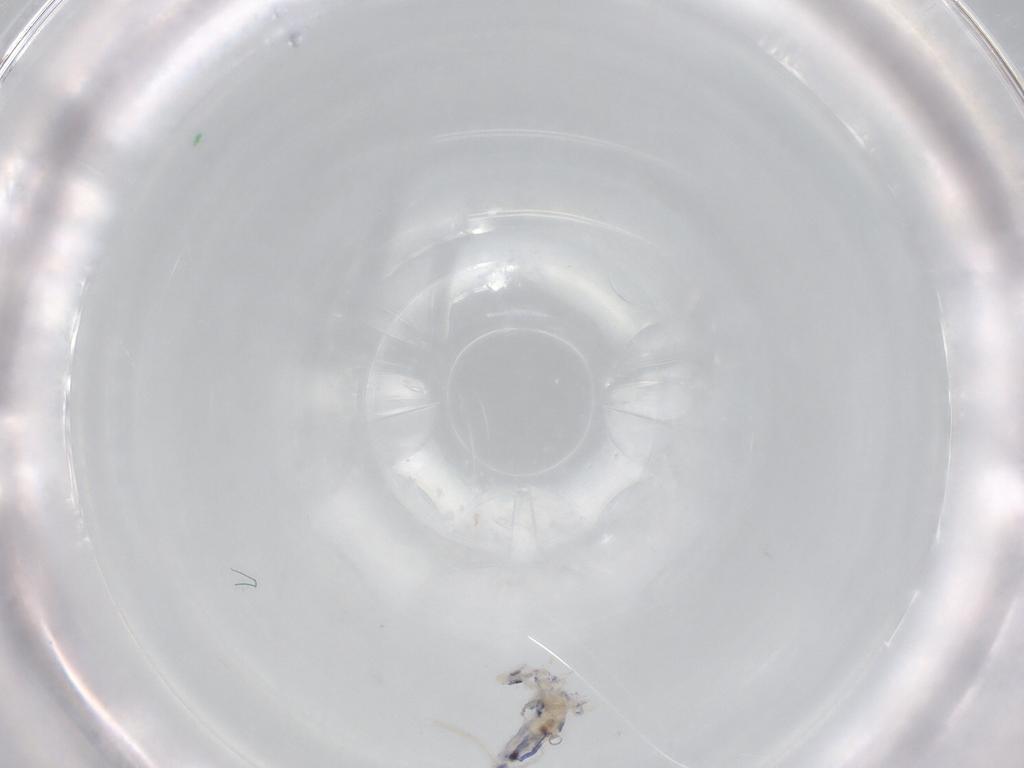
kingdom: Animalia
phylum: Arthropoda
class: Collembola
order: Entomobryomorpha
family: Entomobryidae
